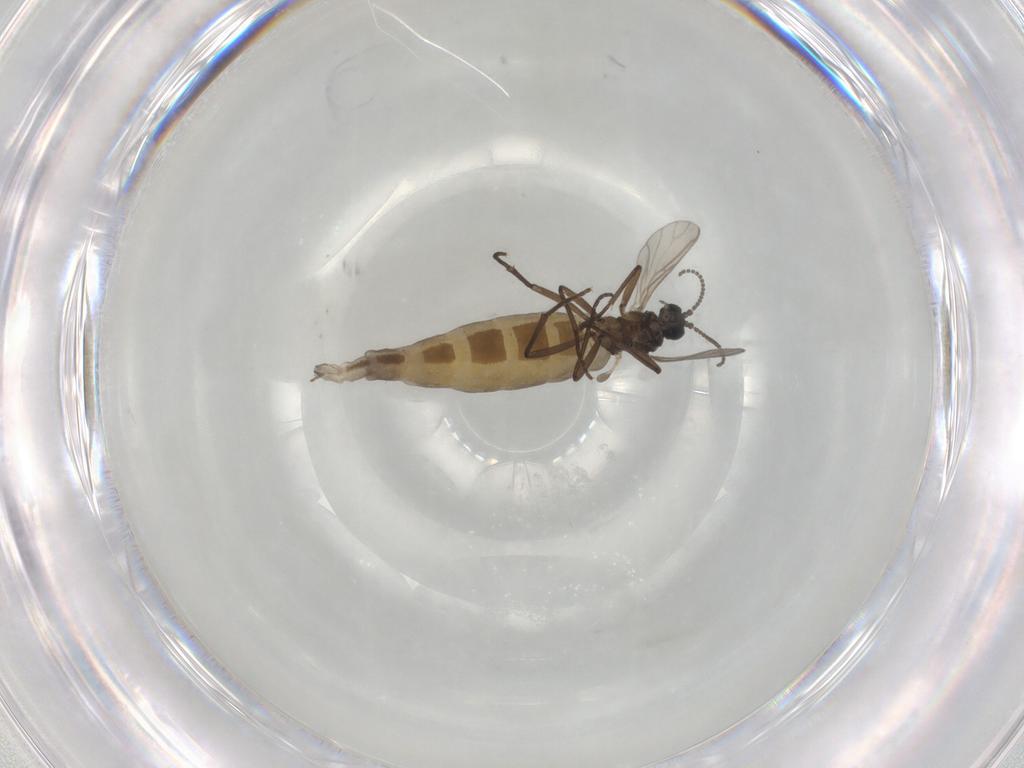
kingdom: Animalia
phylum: Arthropoda
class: Insecta
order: Diptera
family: Sciaridae
